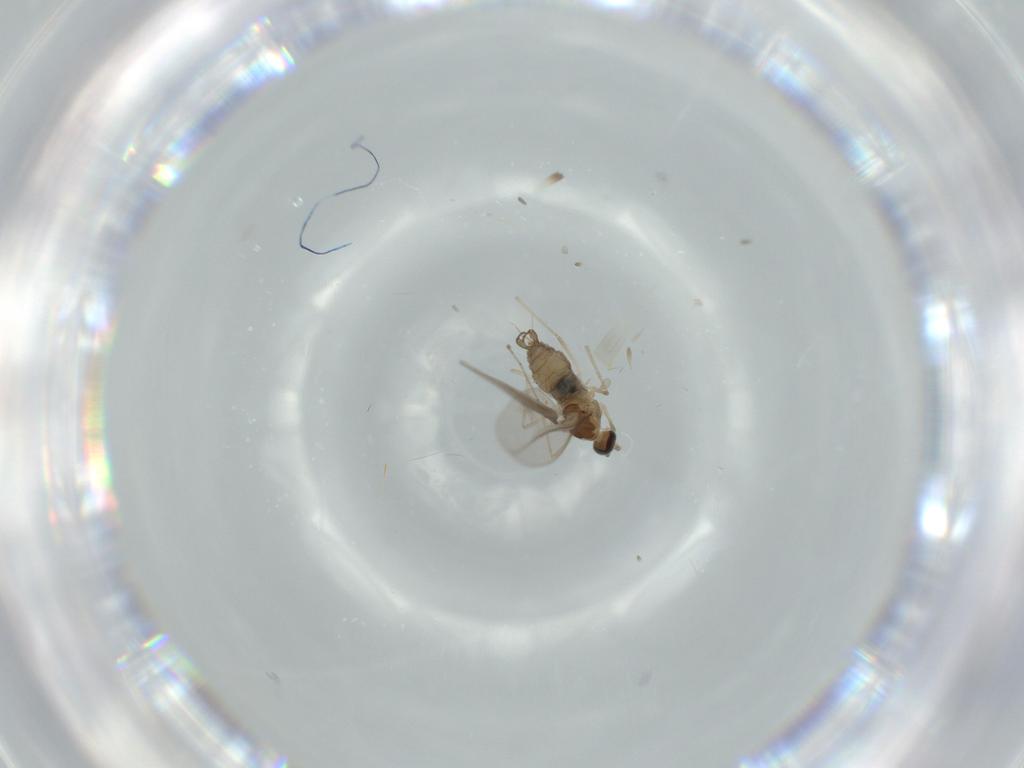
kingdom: Animalia
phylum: Arthropoda
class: Insecta
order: Diptera
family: Cecidomyiidae
